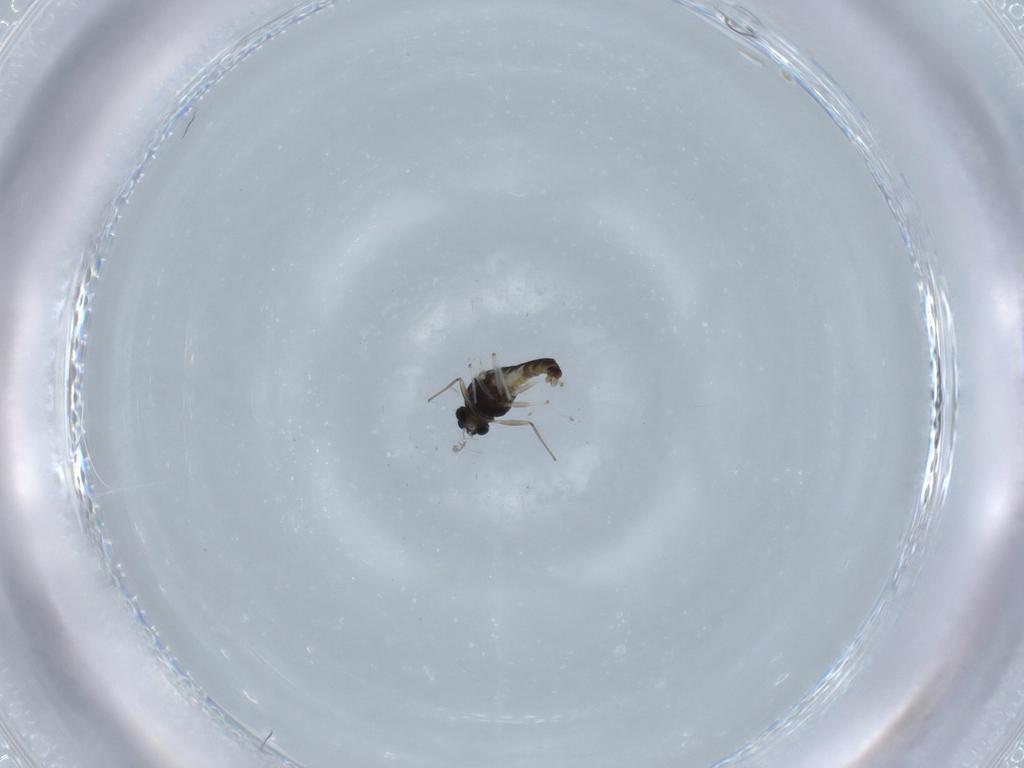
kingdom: Animalia
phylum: Arthropoda
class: Insecta
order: Diptera
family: Chironomidae
